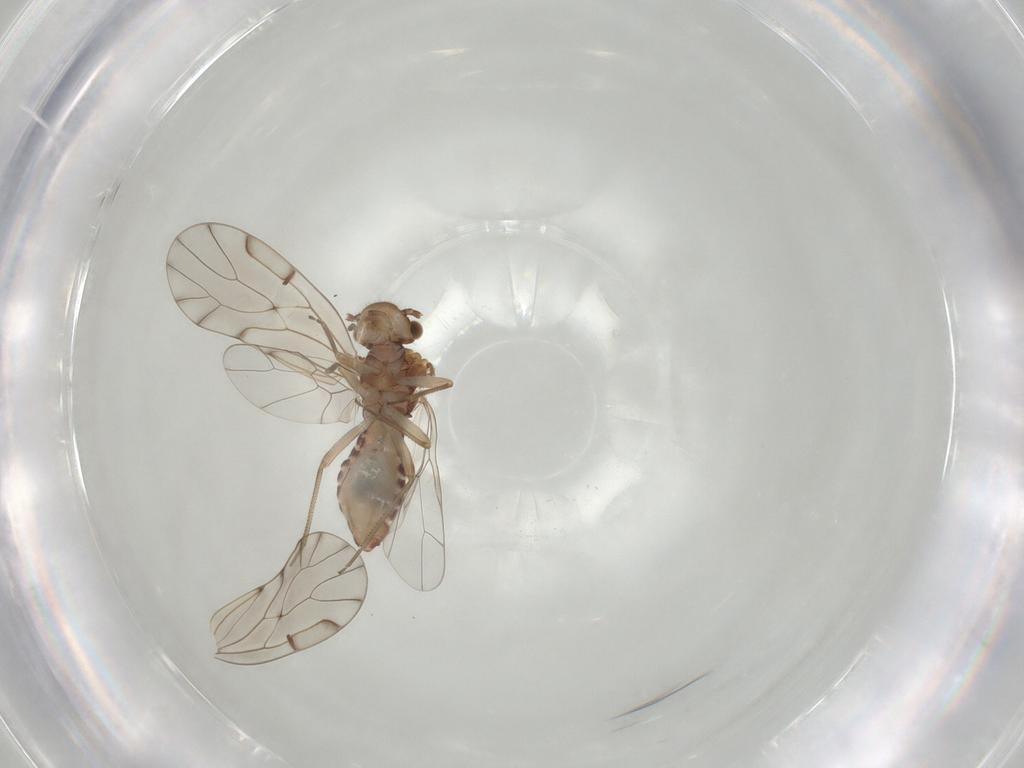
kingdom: Animalia
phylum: Arthropoda
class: Insecta
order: Psocodea
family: Ectopsocidae
